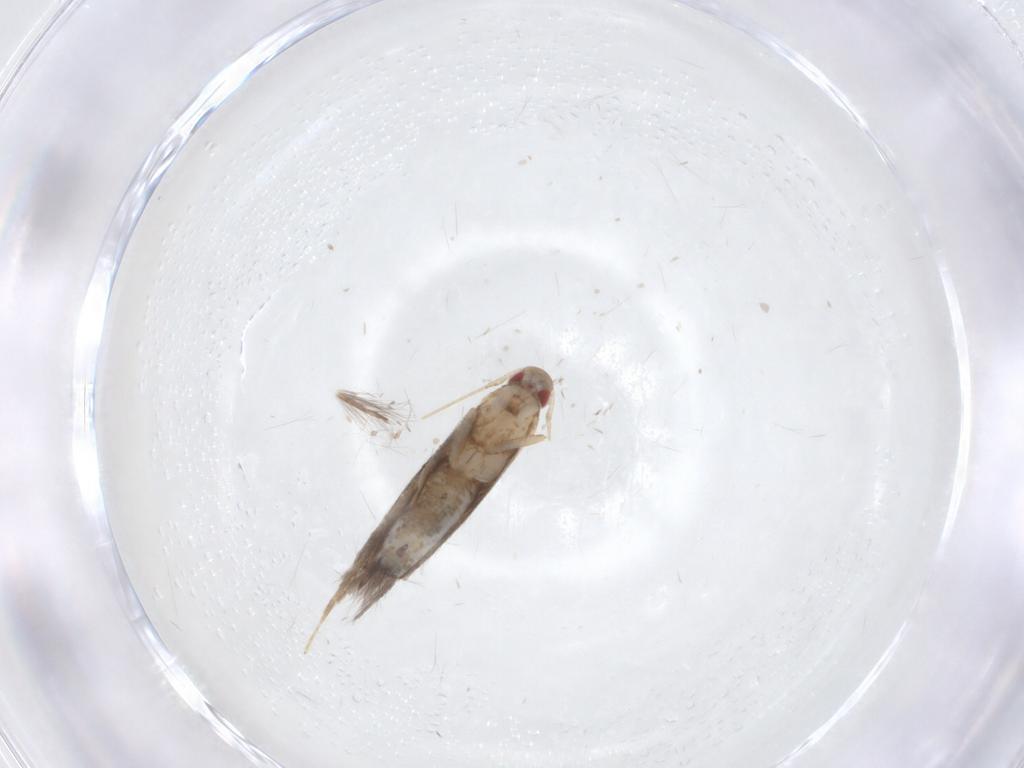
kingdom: Animalia
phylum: Arthropoda
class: Insecta
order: Lepidoptera
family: Cosmopterigidae
